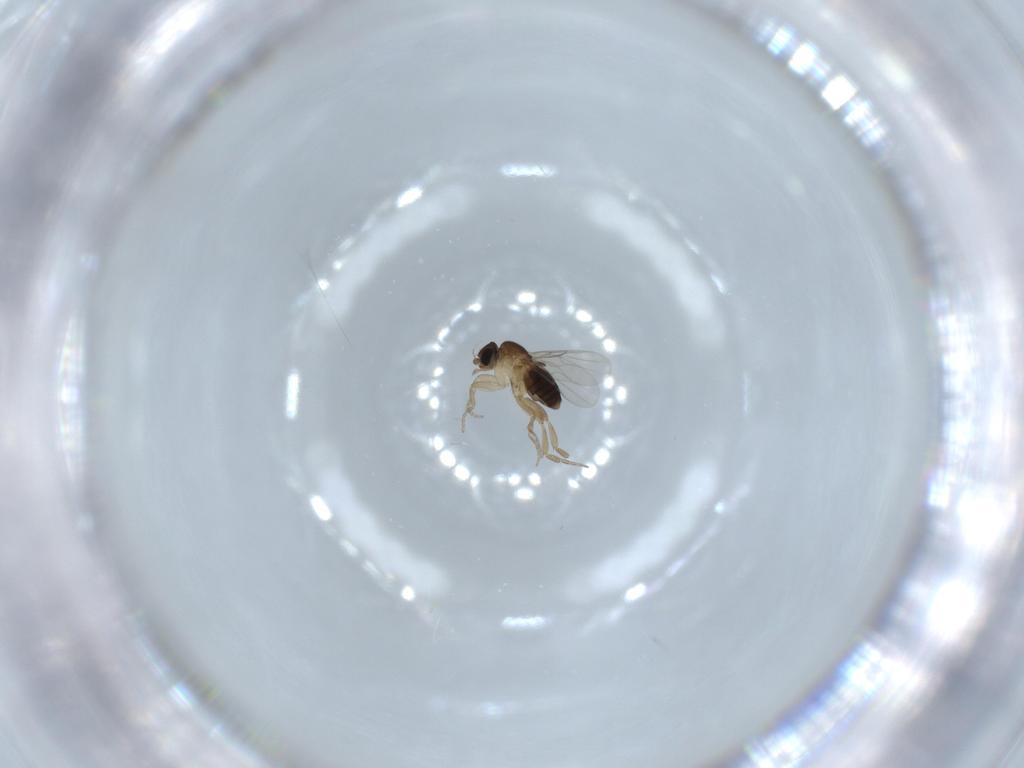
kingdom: Animalia
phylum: Arthropoda
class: Insecta
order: Diptera
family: Phoridae
